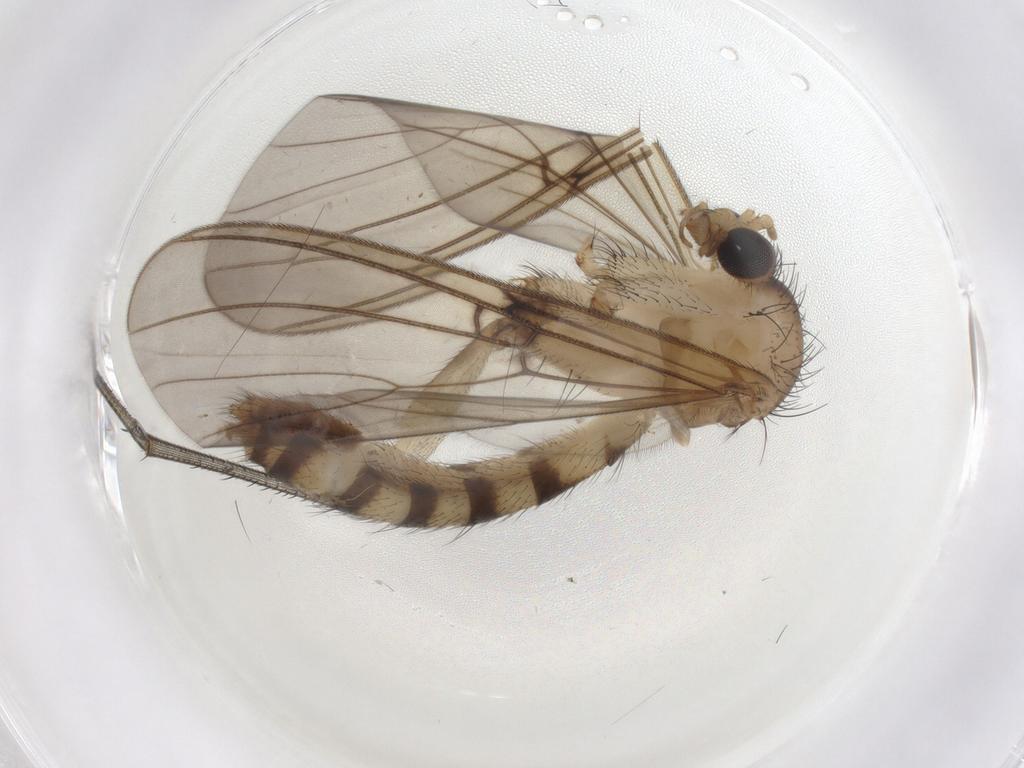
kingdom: Animalia
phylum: Arthropoda
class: Insecta
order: Diptera
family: Mycetophilidae
